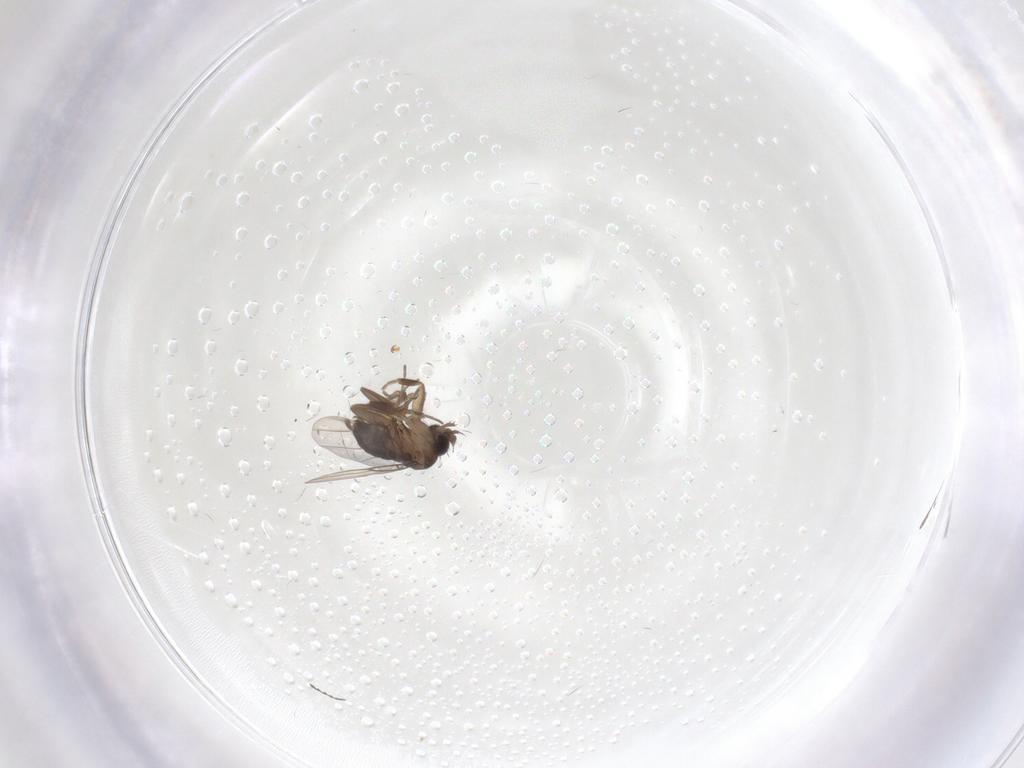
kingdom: Animalia
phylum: Arthropoda
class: Insecta
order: Diptera
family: Phoridae
